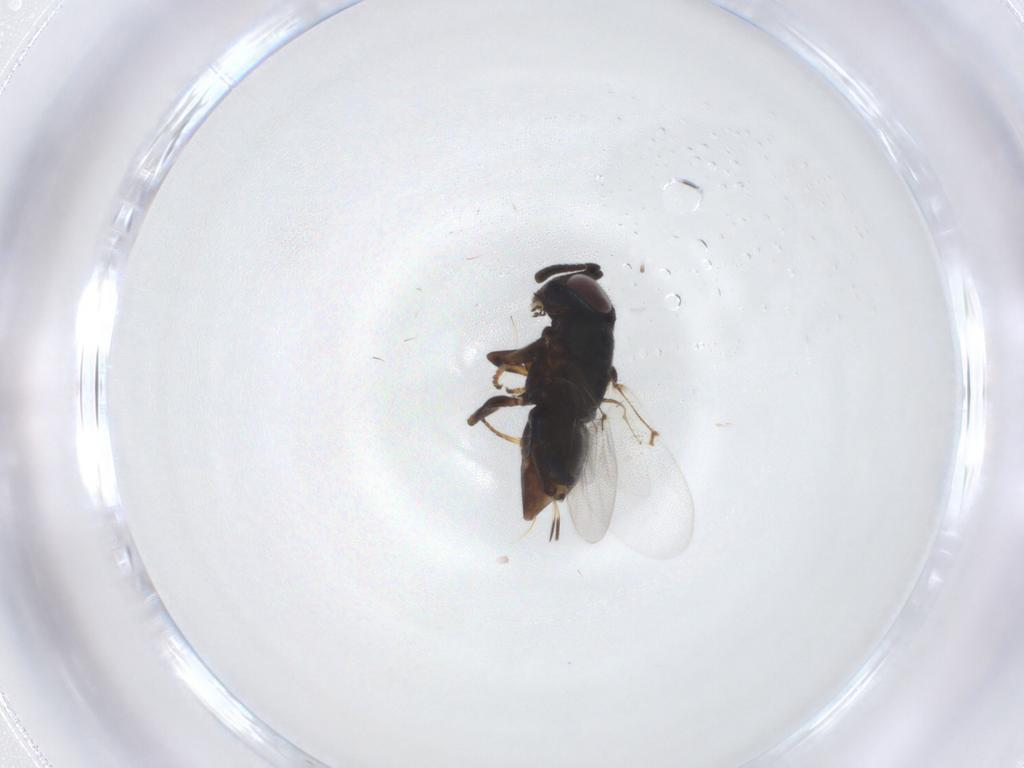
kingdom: Animalia
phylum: Arthropoda
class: Insecta
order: Hymenoptera
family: Encyrtidae
